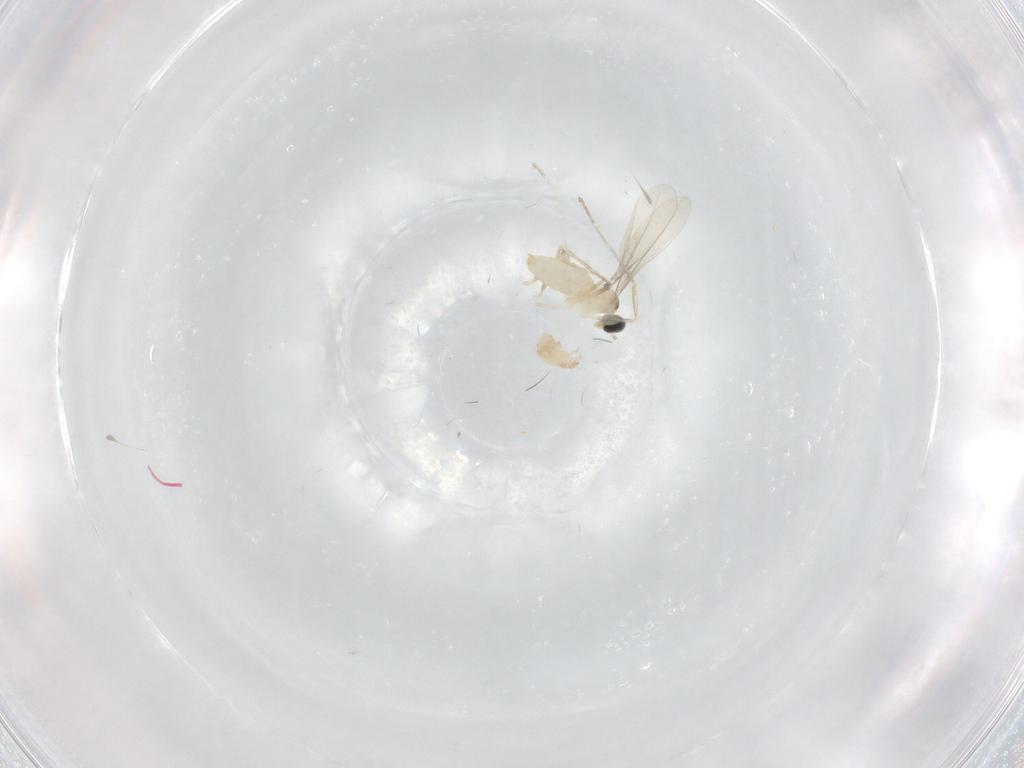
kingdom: Animalia
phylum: Arthropoda
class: Insecta
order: Diptera
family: Cecidomyiidae
